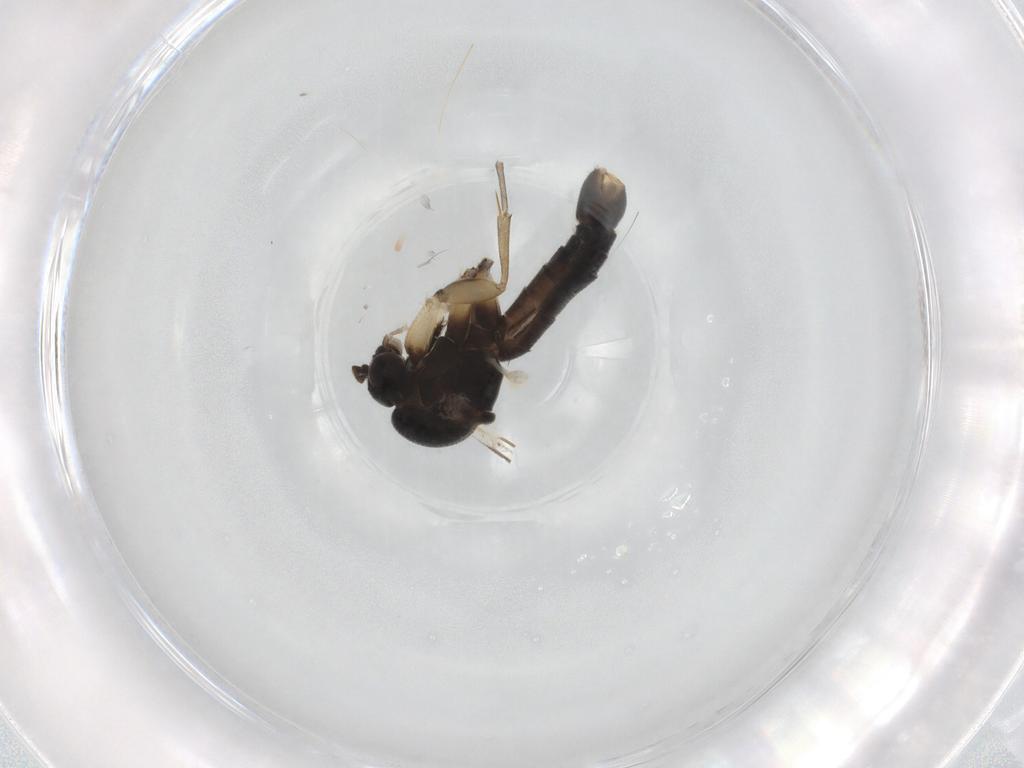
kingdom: Animalia
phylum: Arthropoda
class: Insecta
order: Diptera
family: Mycetophilidae
